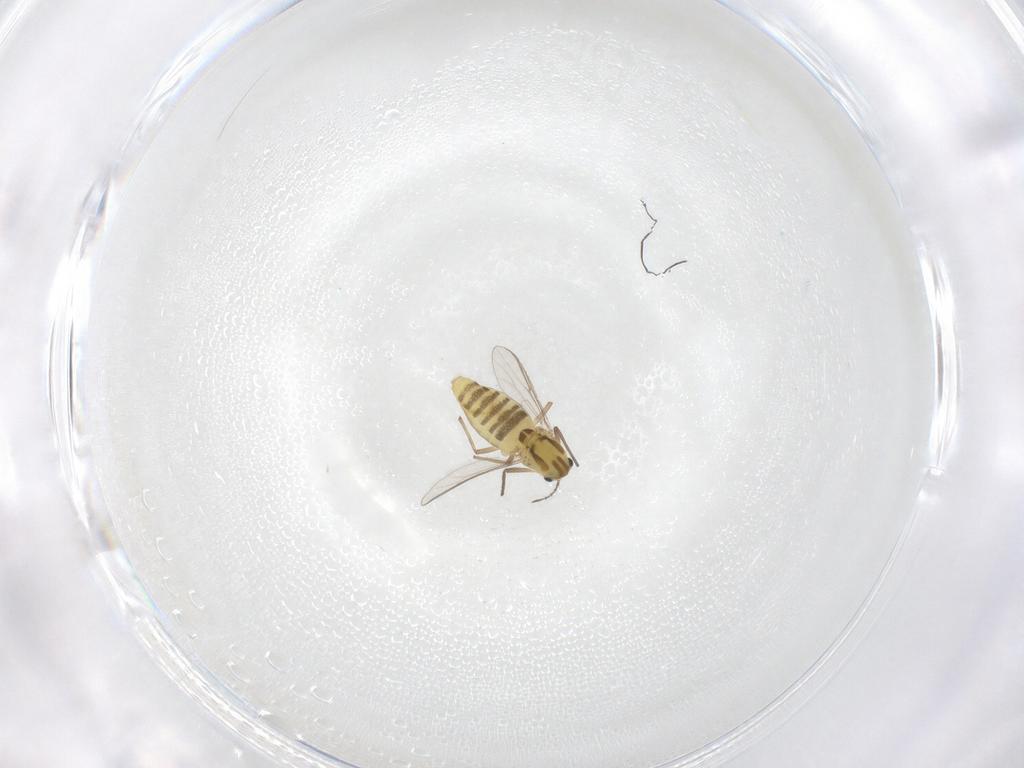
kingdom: Animalia
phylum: Arthropoda
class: Insecta
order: Diptera
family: Chironomidae
